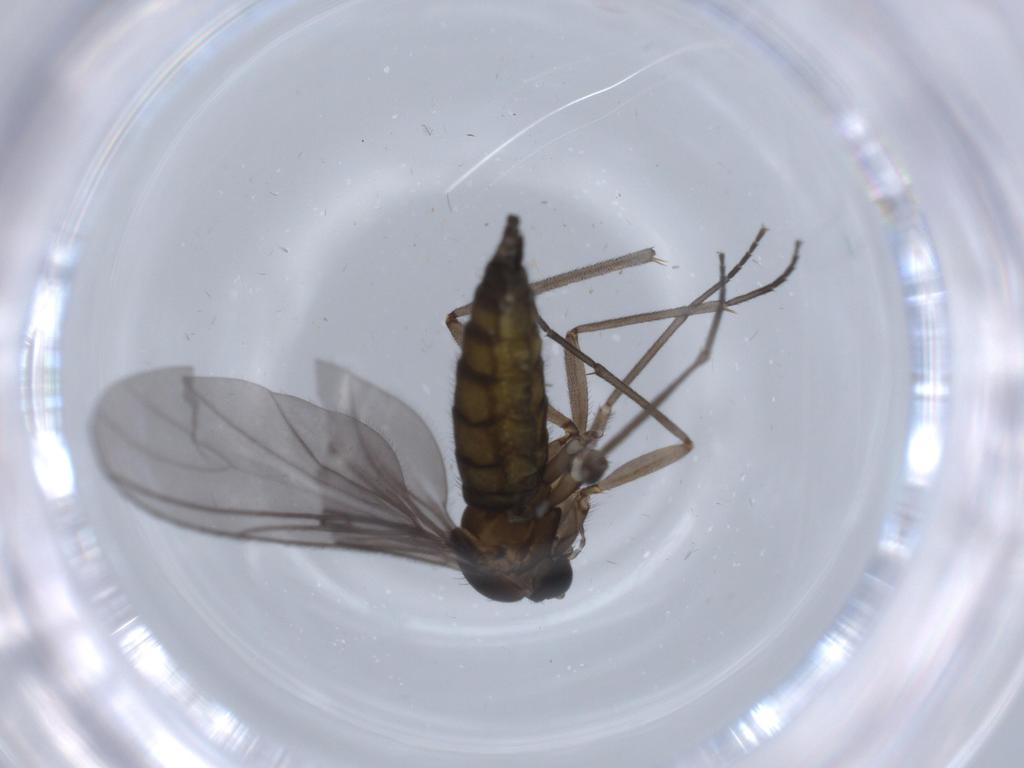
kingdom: Animalia
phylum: Arthropoda
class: Insecta
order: Diptera
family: Sciaridae
